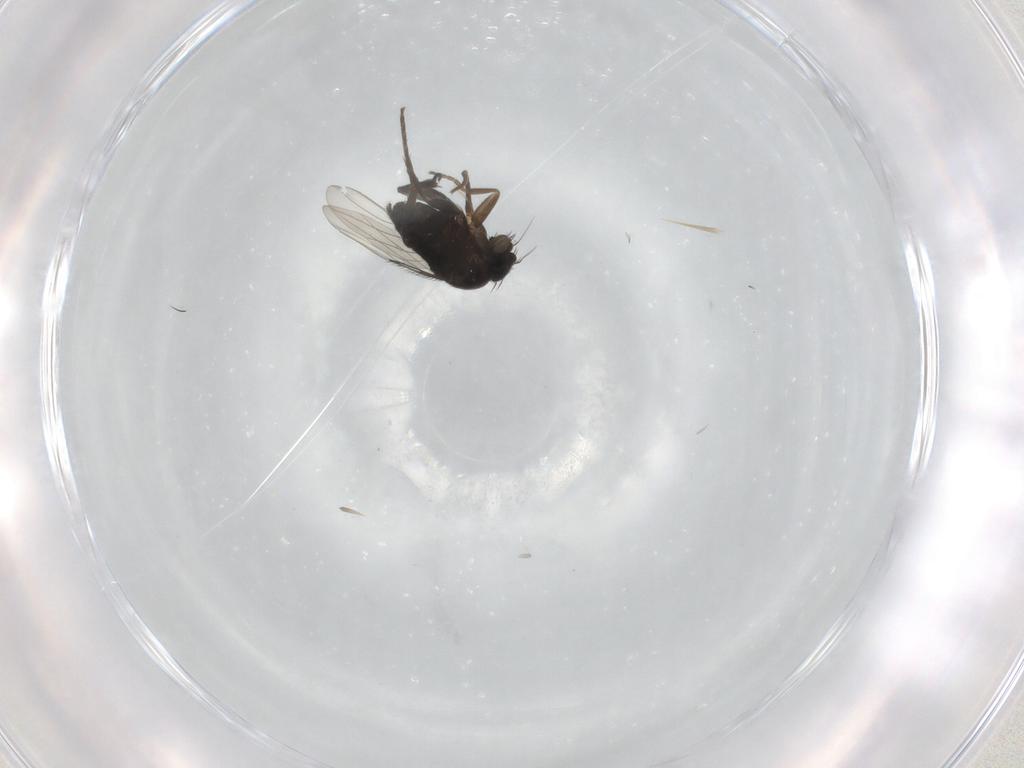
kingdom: Animalia
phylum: Arthropoda
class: Insecta
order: Diptera
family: Phoridae
